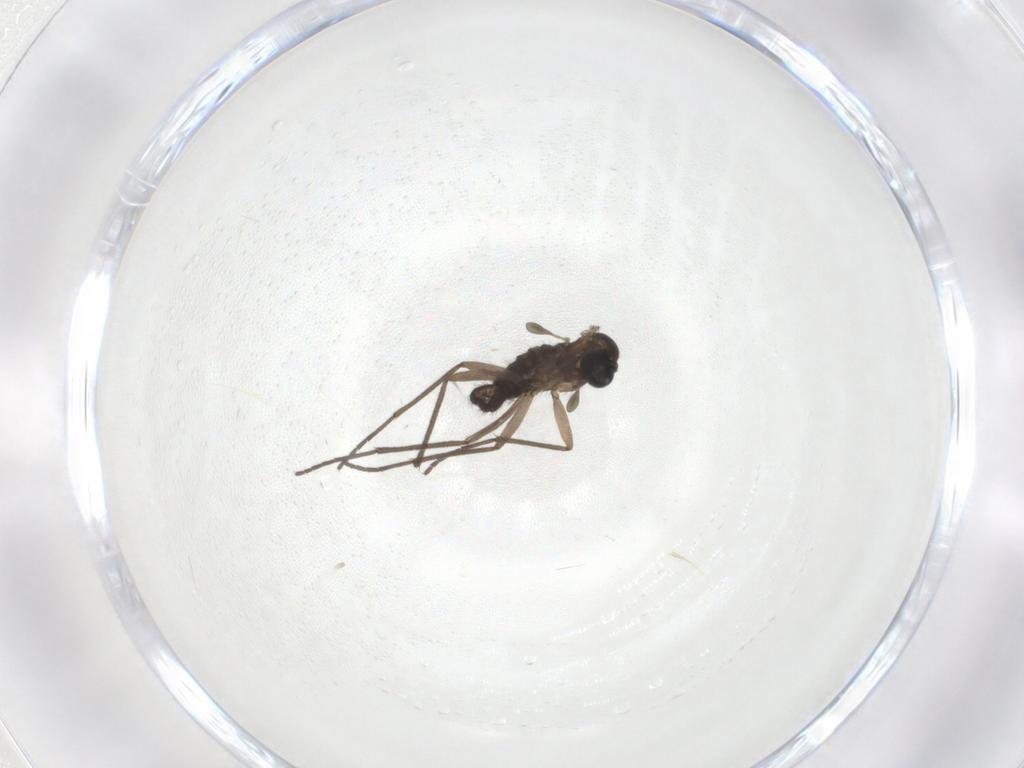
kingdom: Animalia
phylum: Arthropoda
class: Insecta
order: Diptera
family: Sciaridae
